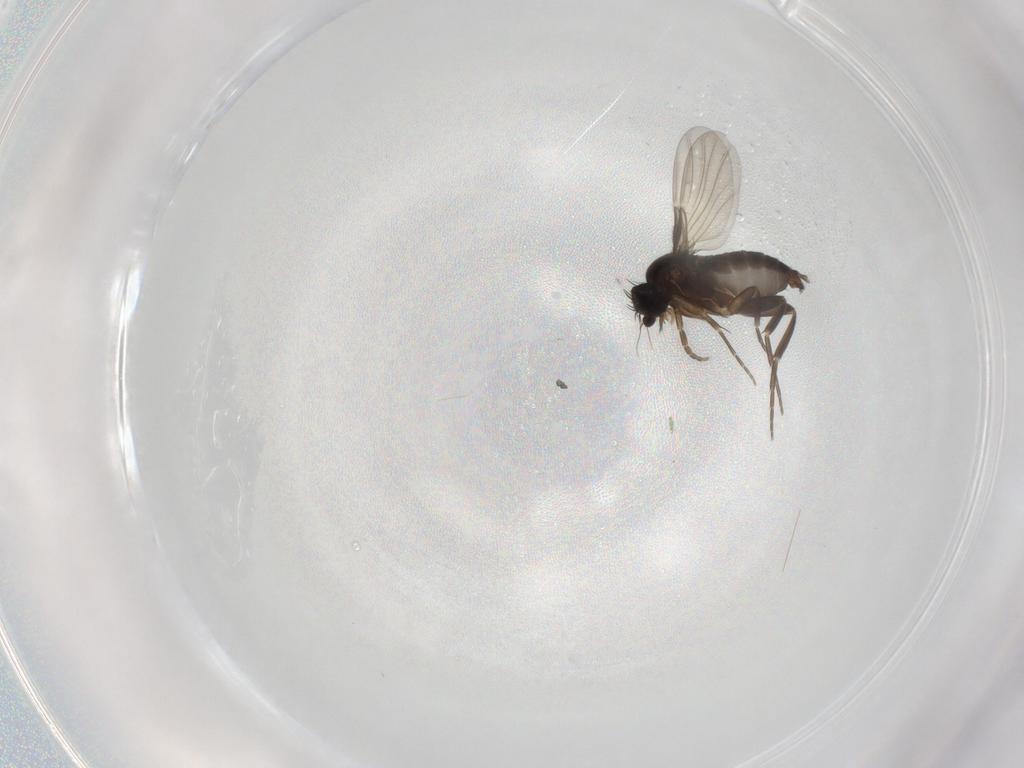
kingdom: Animalia
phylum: Arthropoda
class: Insecta
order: Diptera
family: Phoridae
